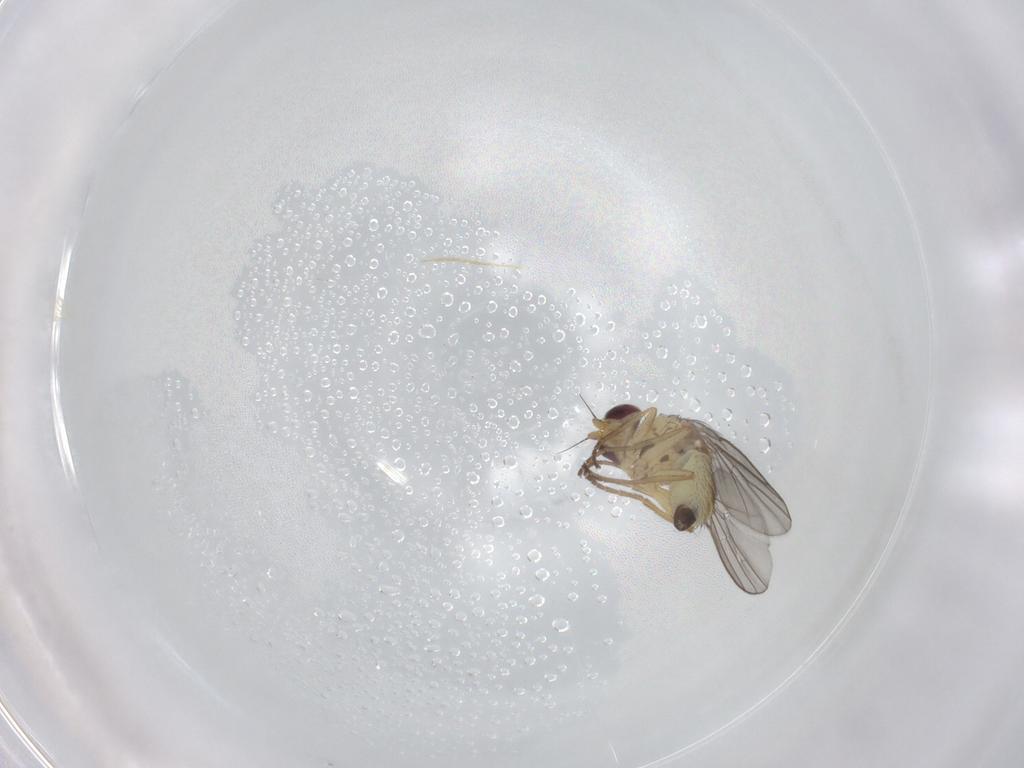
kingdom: Animalia
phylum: Arthropoda
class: Insecta
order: Diptera
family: Agromyzidae
